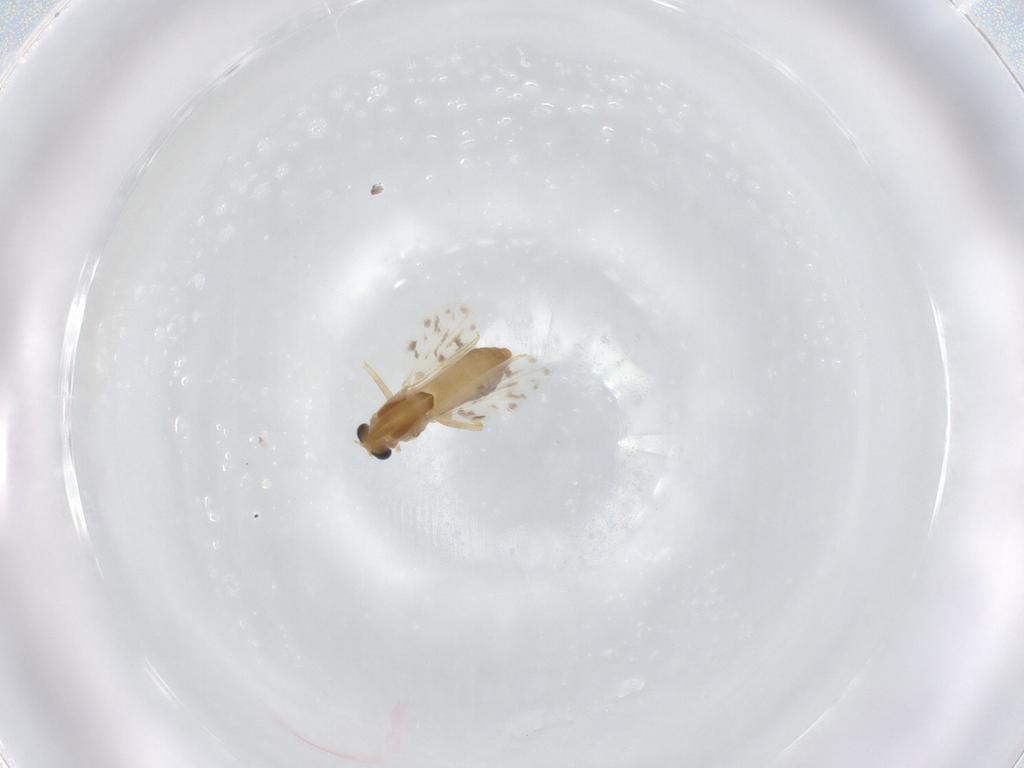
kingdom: Animalia
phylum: Arthropoda
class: Insecta
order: Diptera
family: Chironomidae
